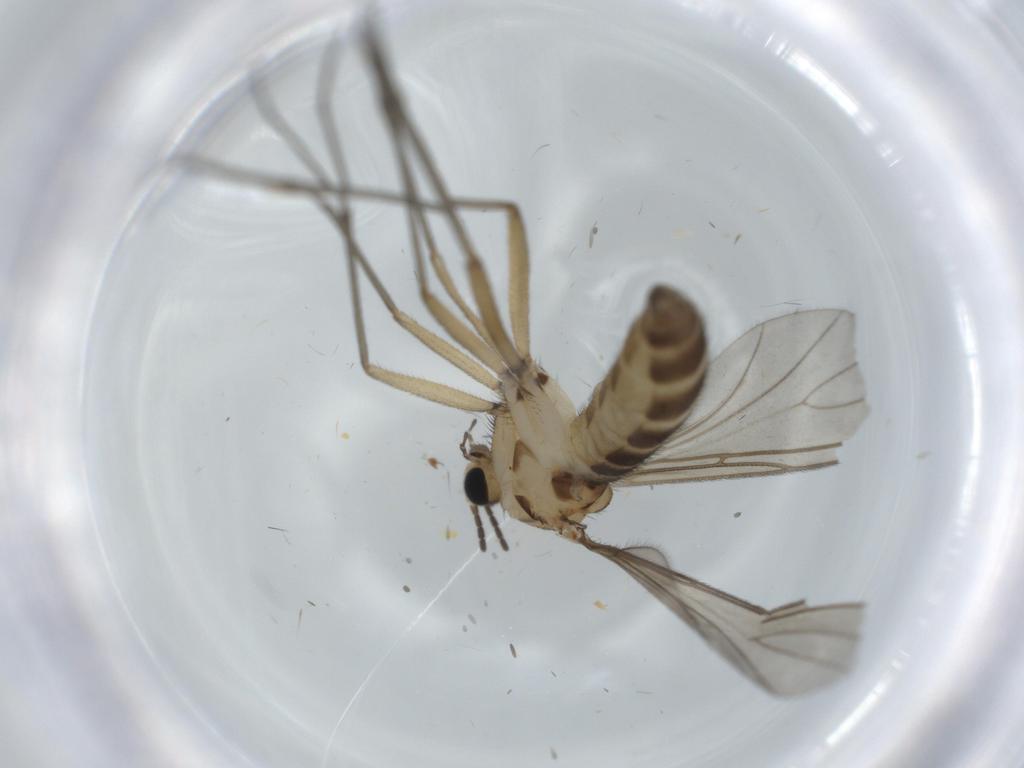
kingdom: Animalia
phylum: Arthropoda
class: Insecta
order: Diptera
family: Sciaridae
